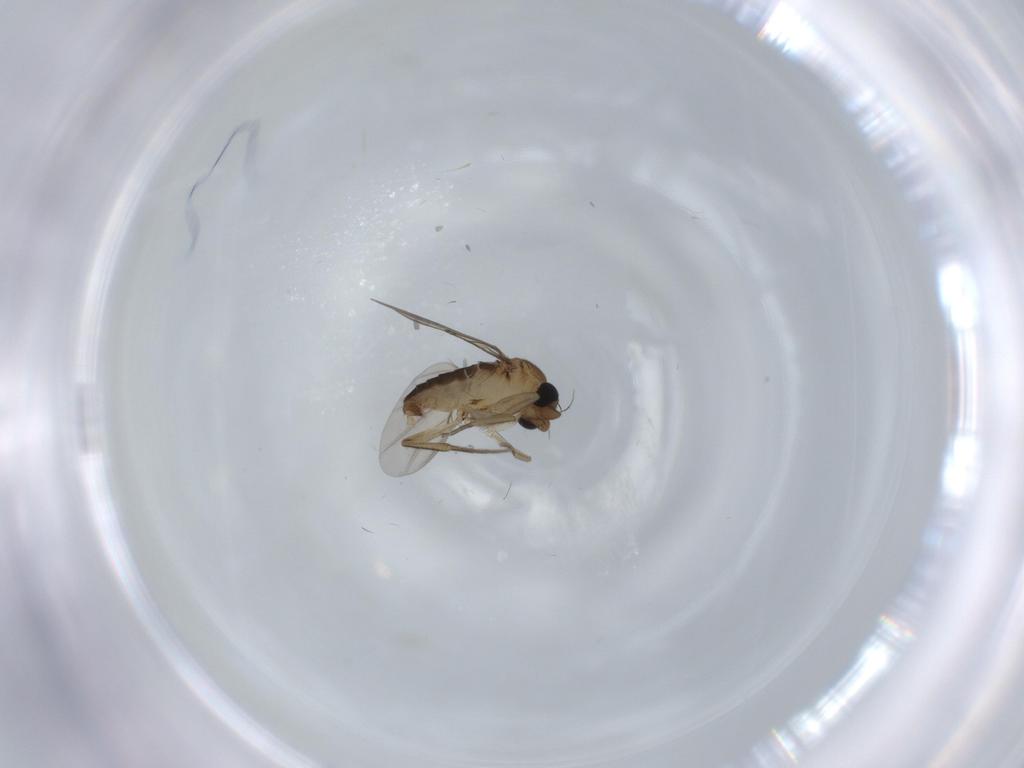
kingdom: Animalia
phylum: Arthropoda
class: Insecta
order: Diptera
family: Phoridae
